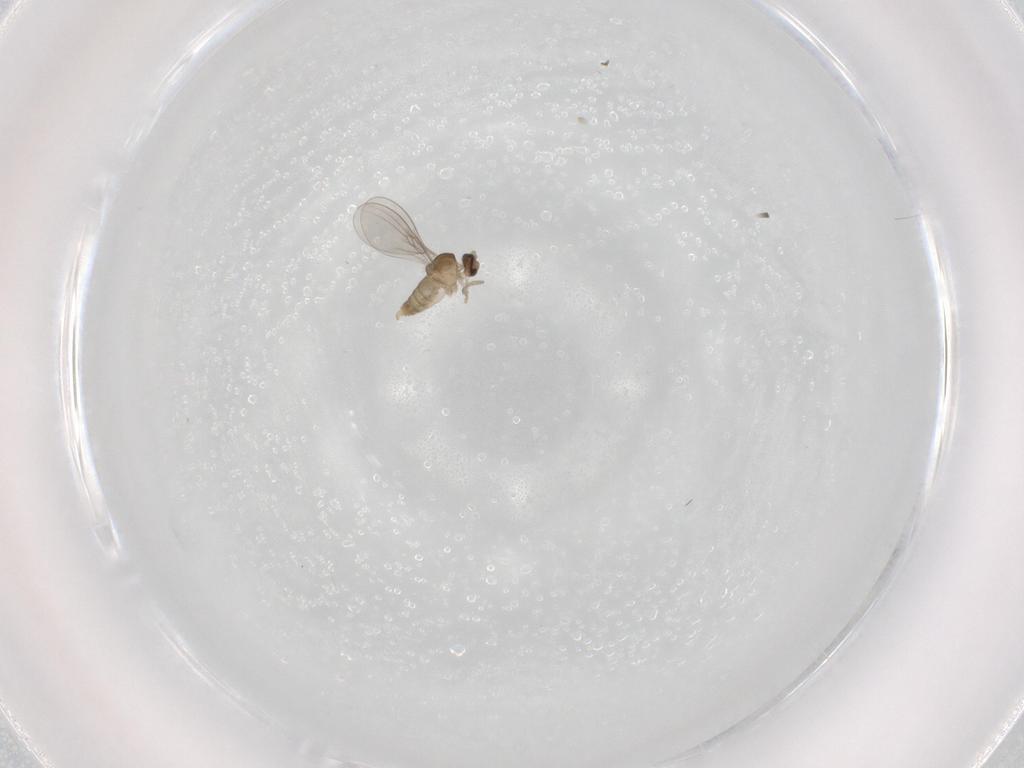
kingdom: Animalia
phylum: Arthropoda
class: Insecta
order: Diptera
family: Cecidomyiidae
